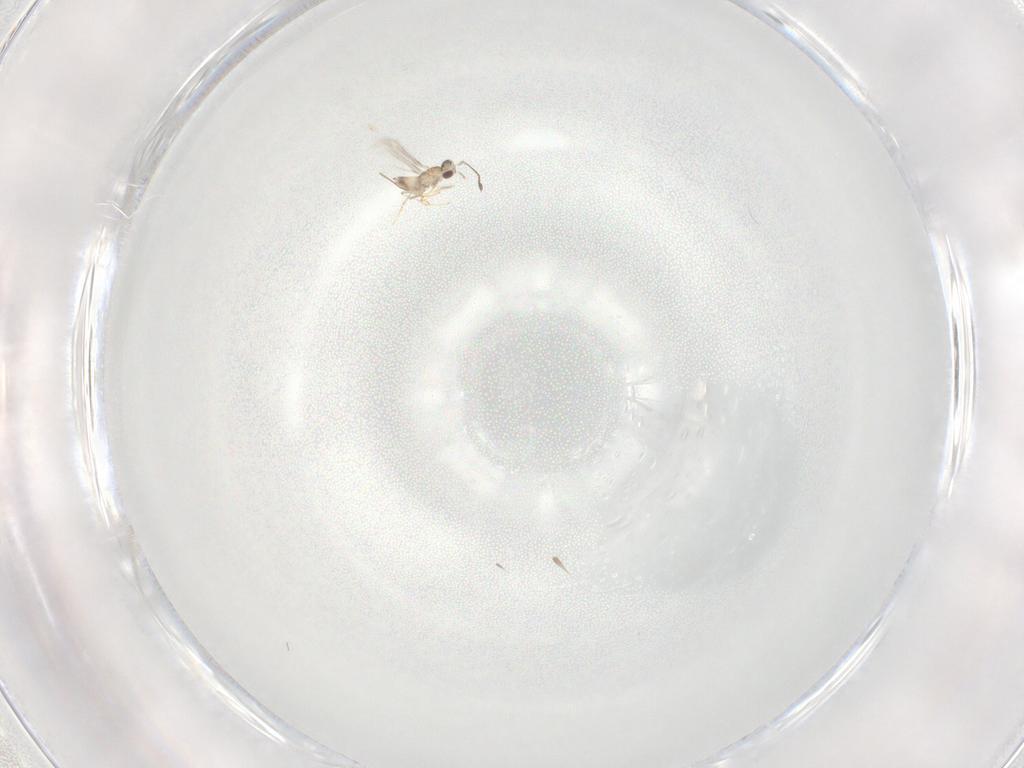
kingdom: Animalia
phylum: Arthropoda
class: Insecta
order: Hymenoptera
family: Mymaridae
